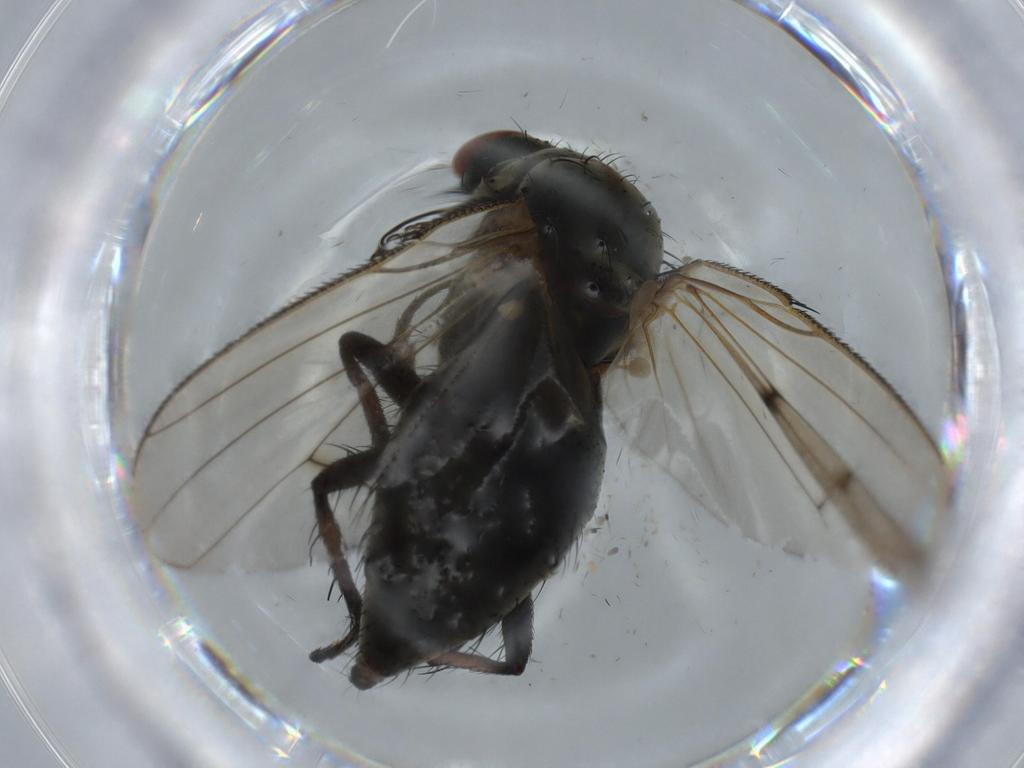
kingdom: Animalia
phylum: Arthropoda
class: Insecta
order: Diptera
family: Anthomyiidae
